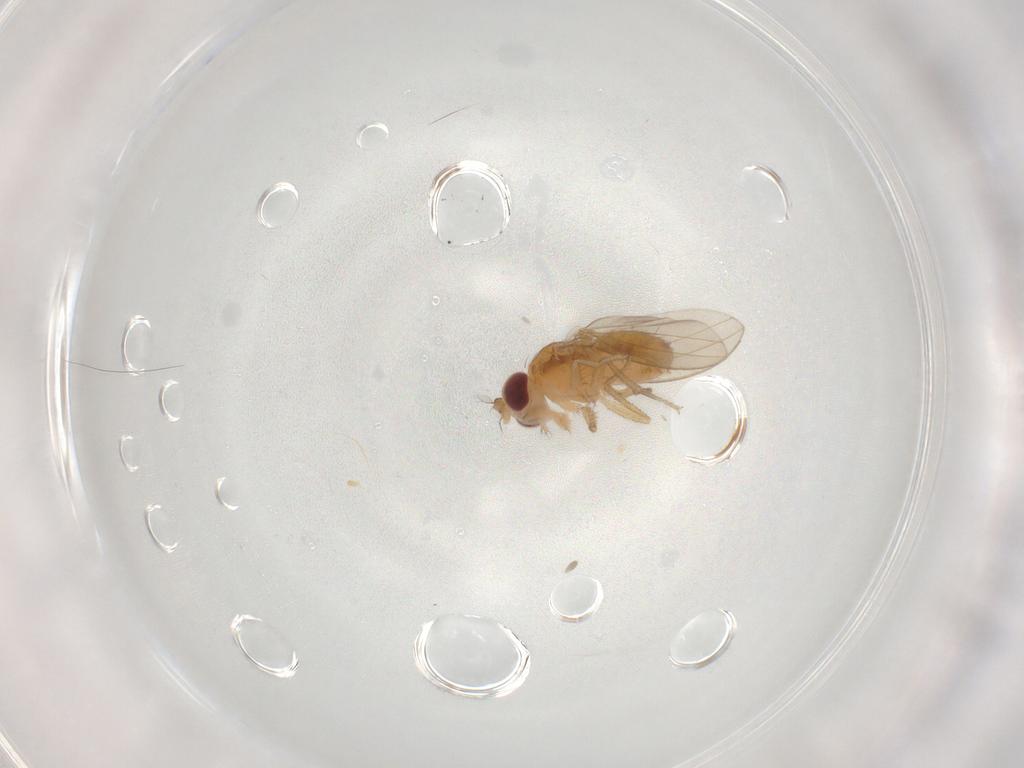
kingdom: Animalia
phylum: Arthropoda
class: Insecta
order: Diptera
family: Drosophilidae
